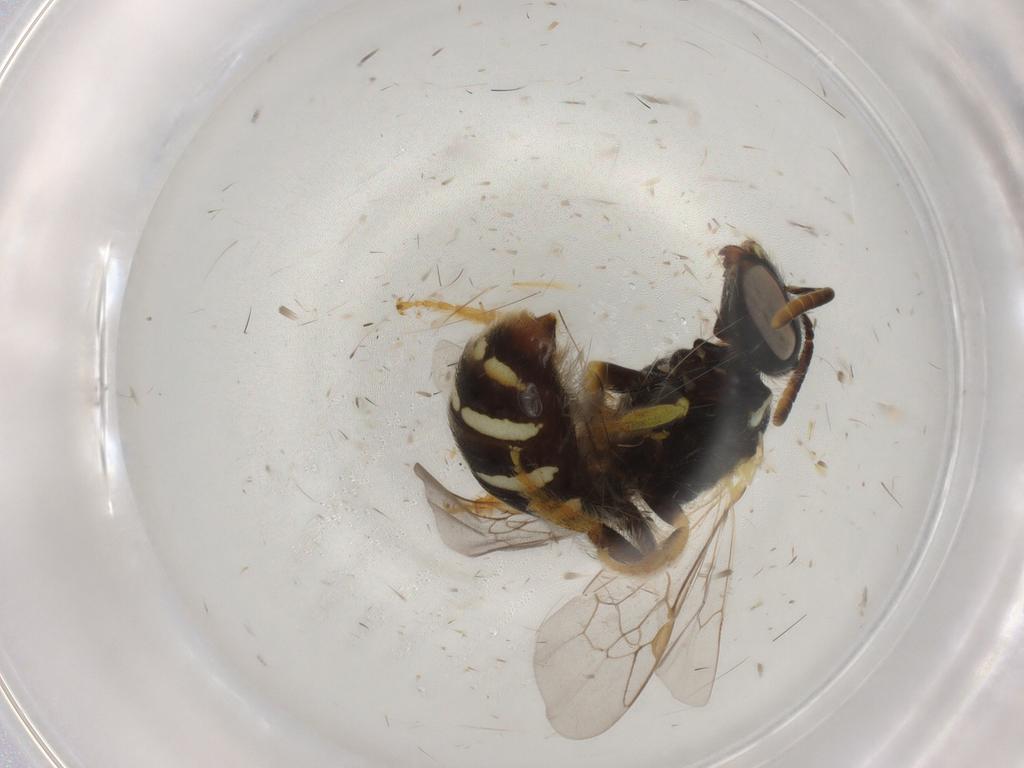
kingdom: Animalia
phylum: Arthropoda
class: Insecta
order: Hymenoptera
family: Halictidae
